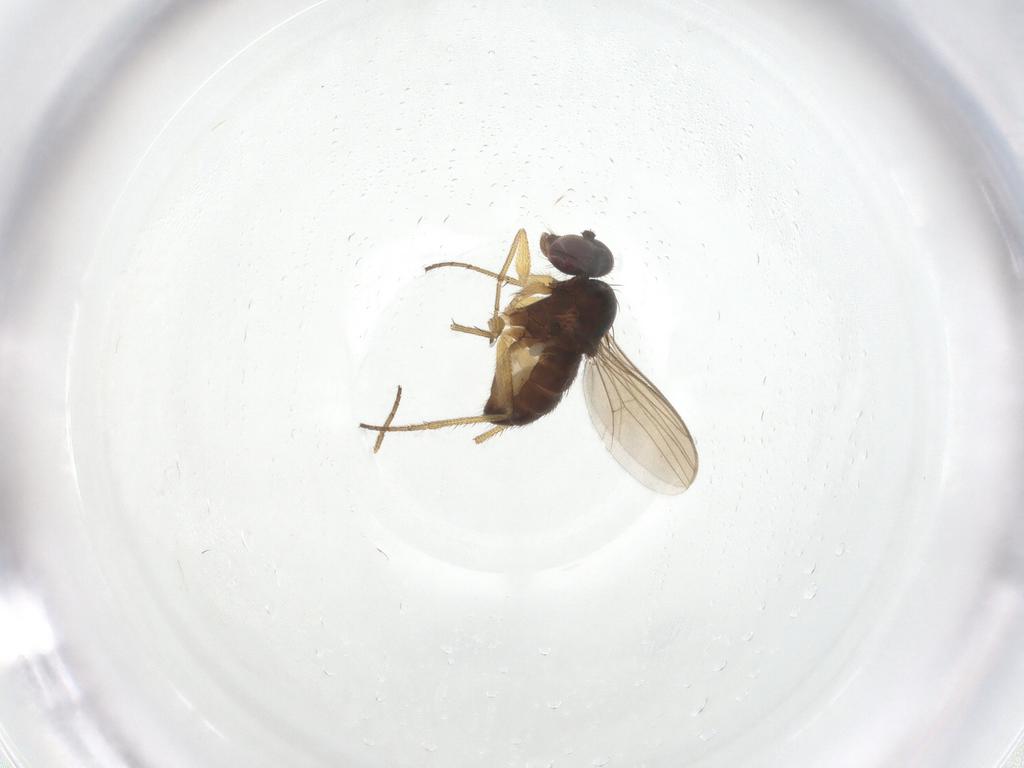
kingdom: Animalia
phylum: Arthropoda
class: Insecta
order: Diptera
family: Dolichopodidae
